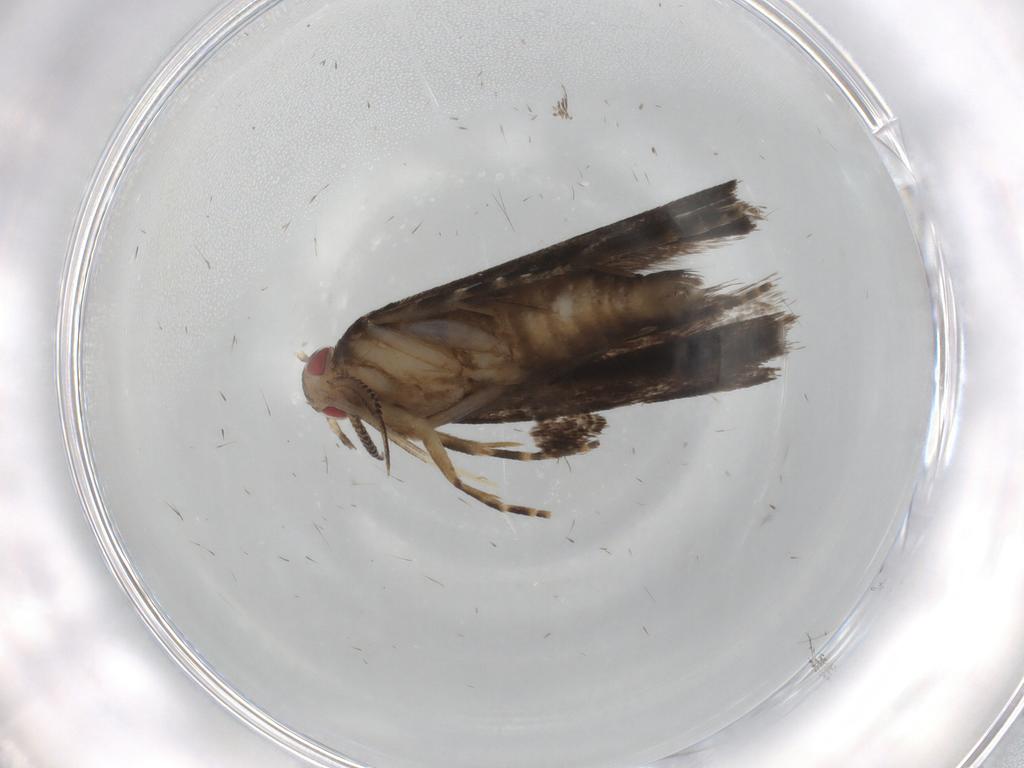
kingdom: Animalia
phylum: Arthropoda
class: Insecta
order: Lepidoptera
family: Gelechiidae
